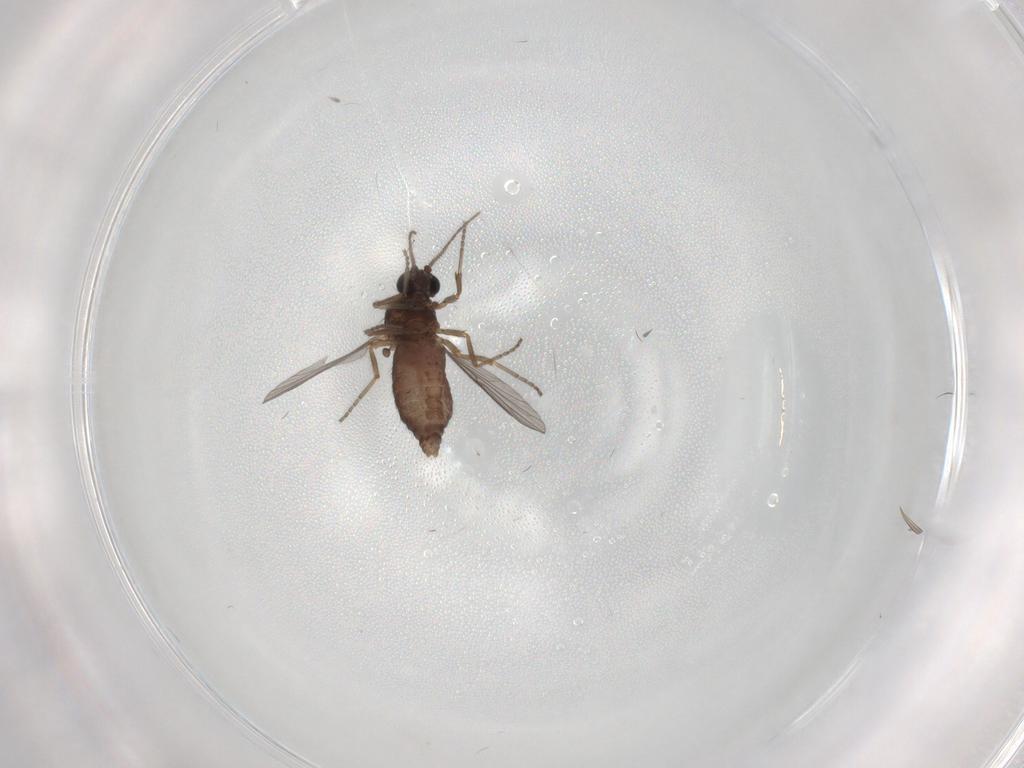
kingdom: Animalia
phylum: Arthropoda
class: Insecta
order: Diptera
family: Ceratopogonidae
